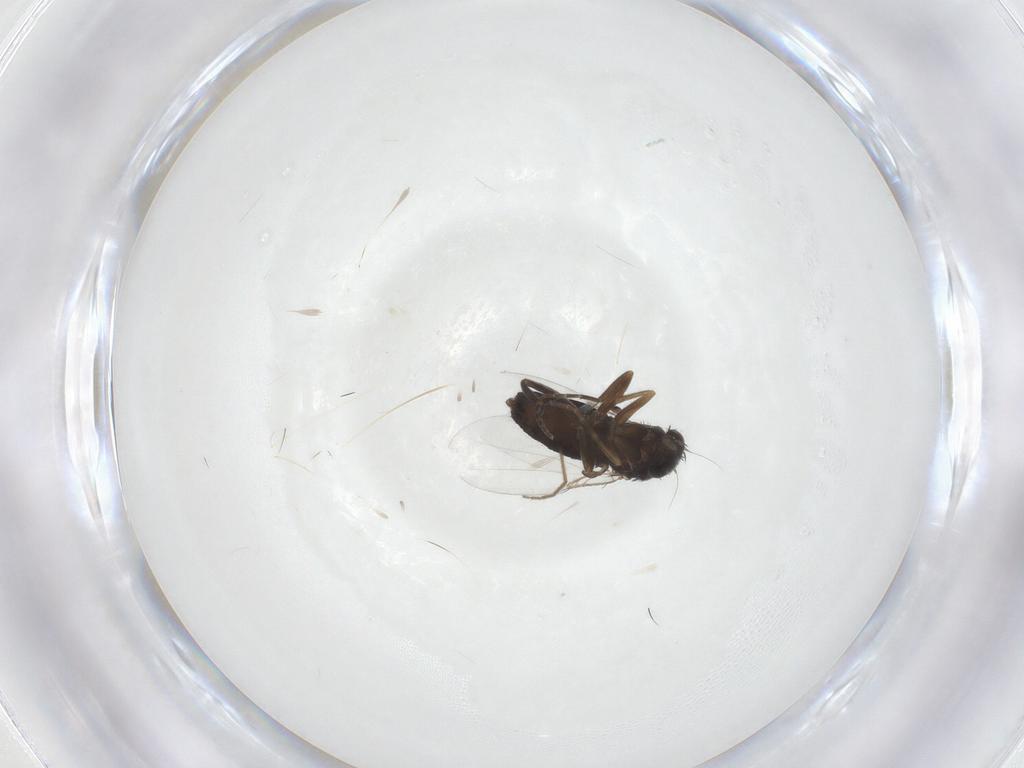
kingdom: Animalia
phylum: Arthropoda
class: Insecta
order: Diptera
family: Drosophilidae
